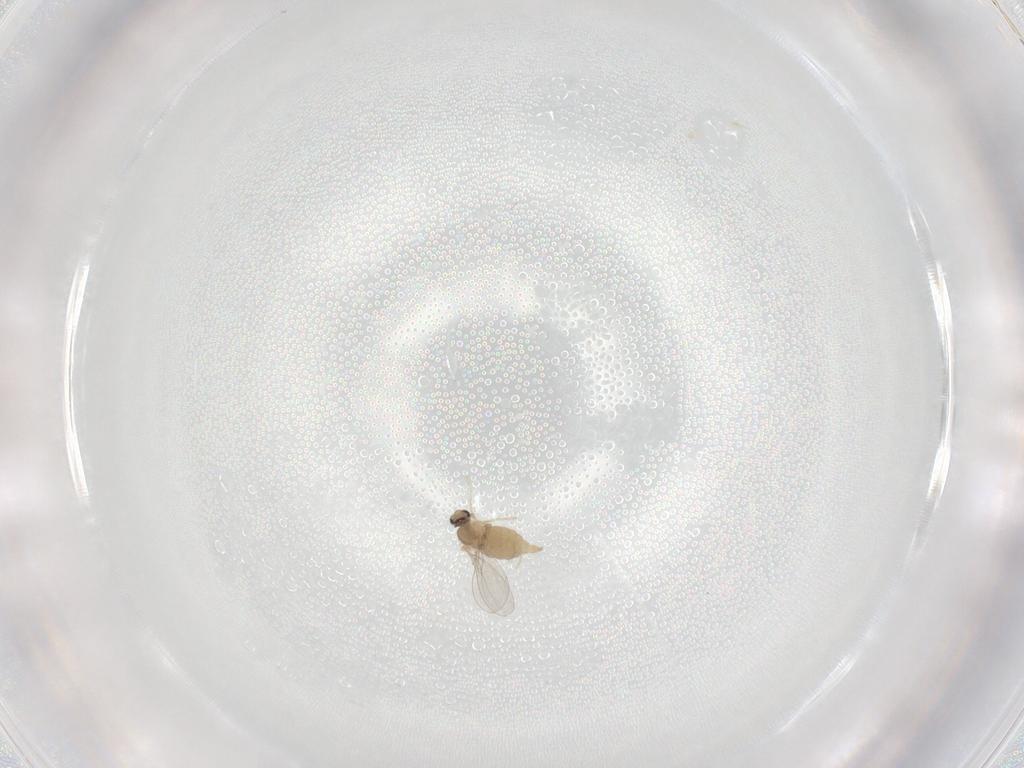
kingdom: Animalia
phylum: Arthropoda
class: Insecta
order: Diptera
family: Cecidomyiidae
